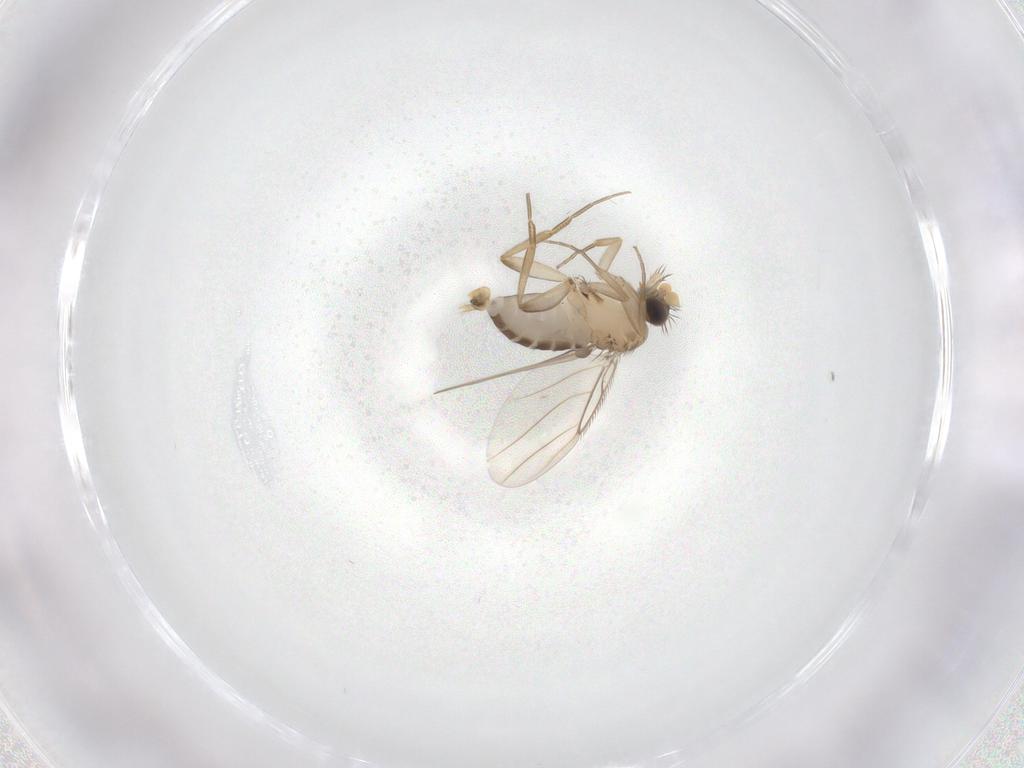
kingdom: Animalia
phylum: Arthropoda
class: Insecta
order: Diptera
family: Phoridae
